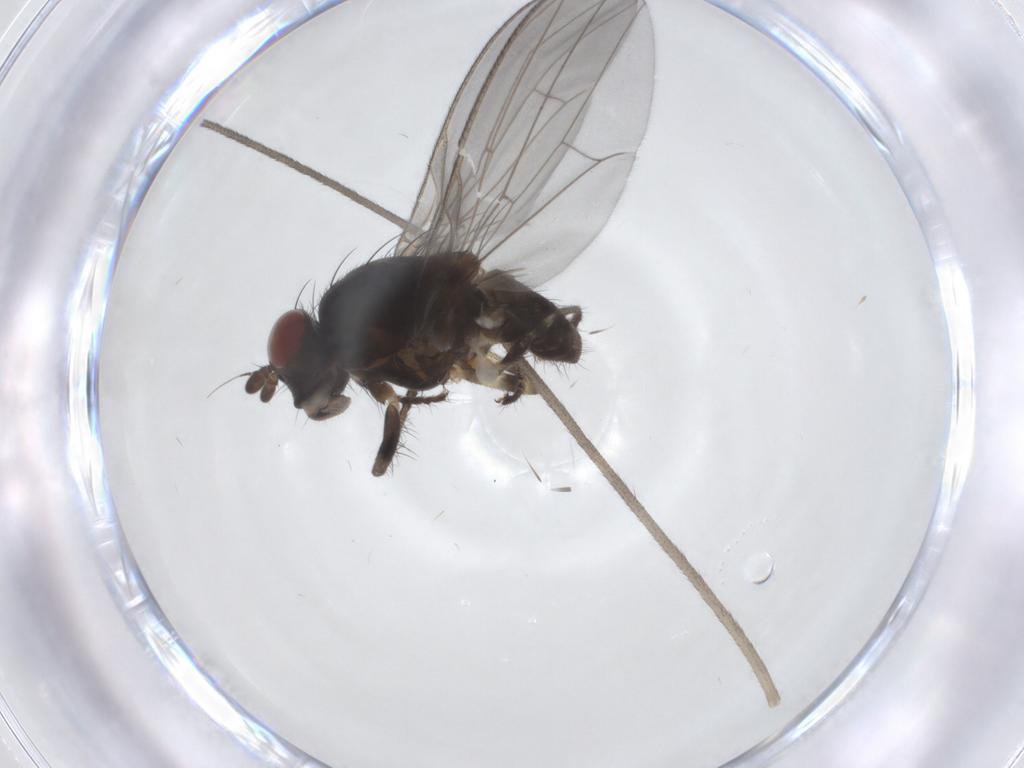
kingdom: Animalia
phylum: Arthropoda
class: Insecta
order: Diptera
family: Limoniidae
